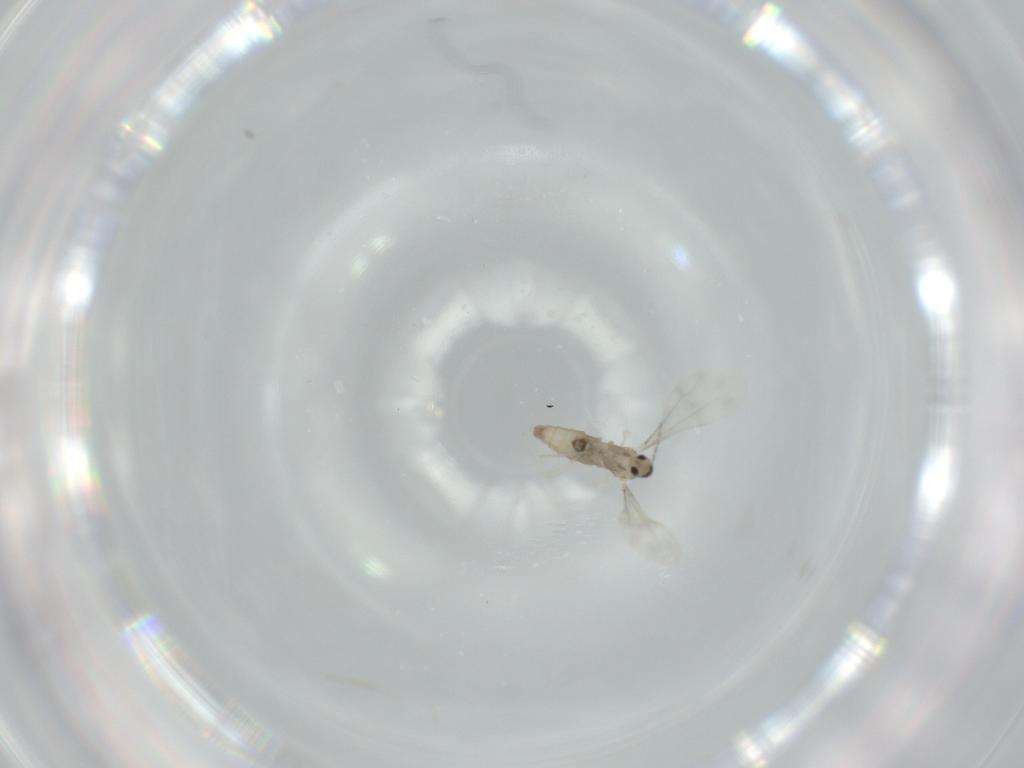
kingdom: Animalia
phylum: Arthropoda
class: Insecta
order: Diptera
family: Cecidomyiidae
